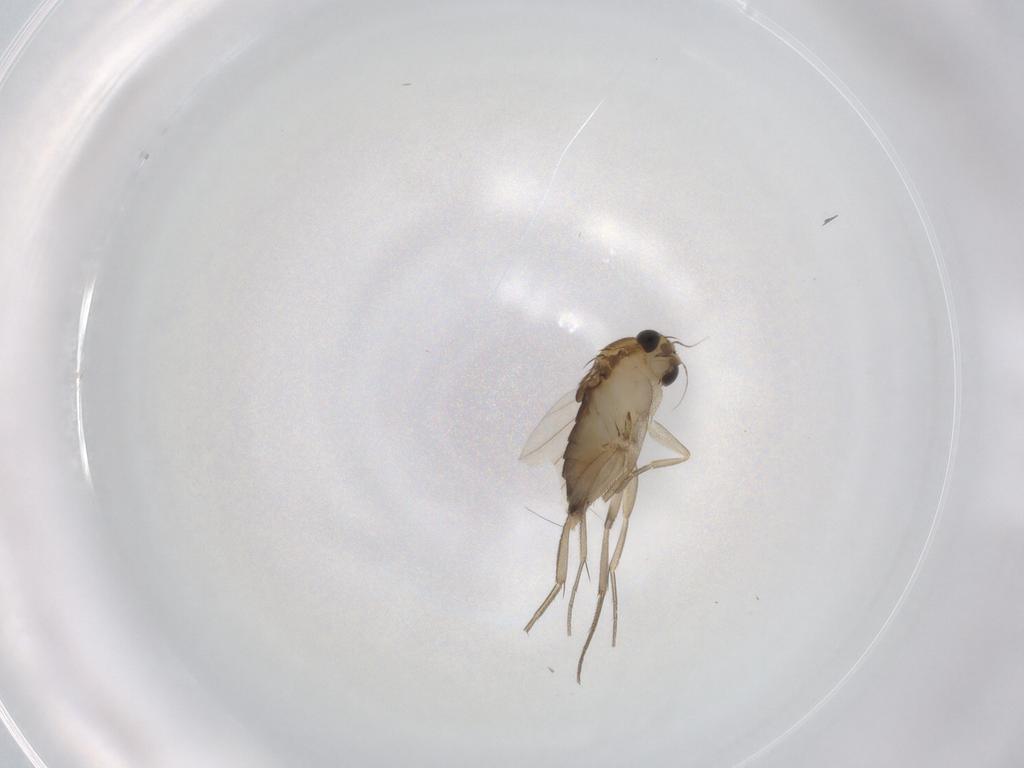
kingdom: Animalia
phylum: Arthropoda
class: Insecta
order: Diptera
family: Phoridae
